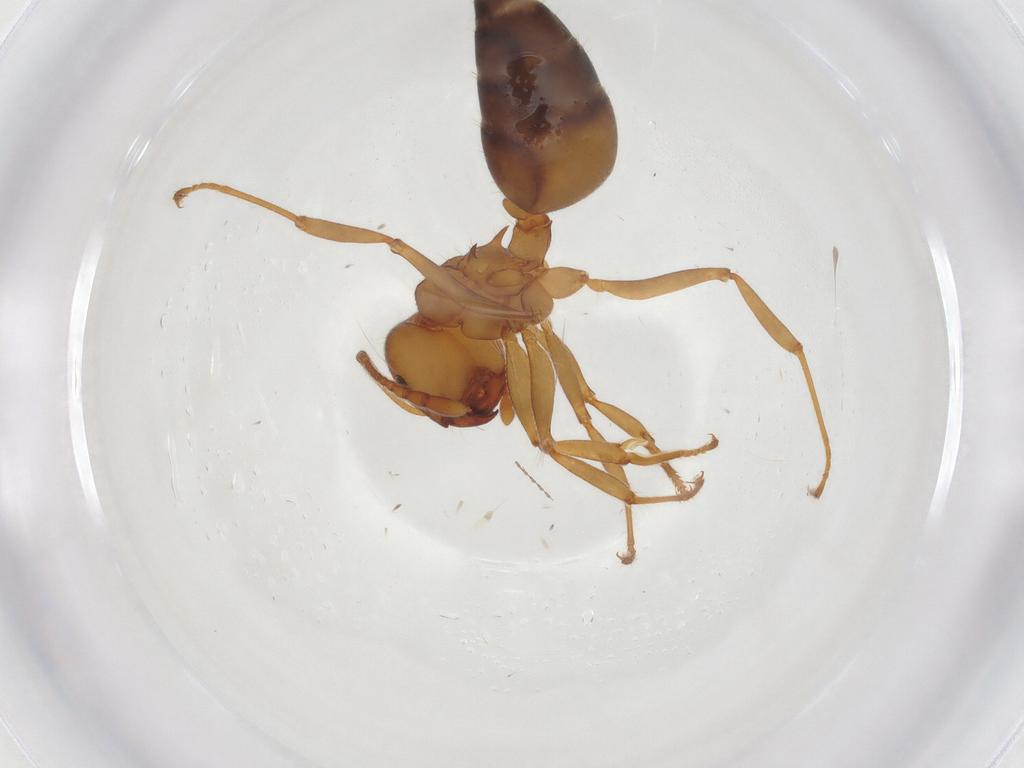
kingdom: Animalia
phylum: Arthropoda
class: Insecta
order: Hymenoptera
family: Formicidae
